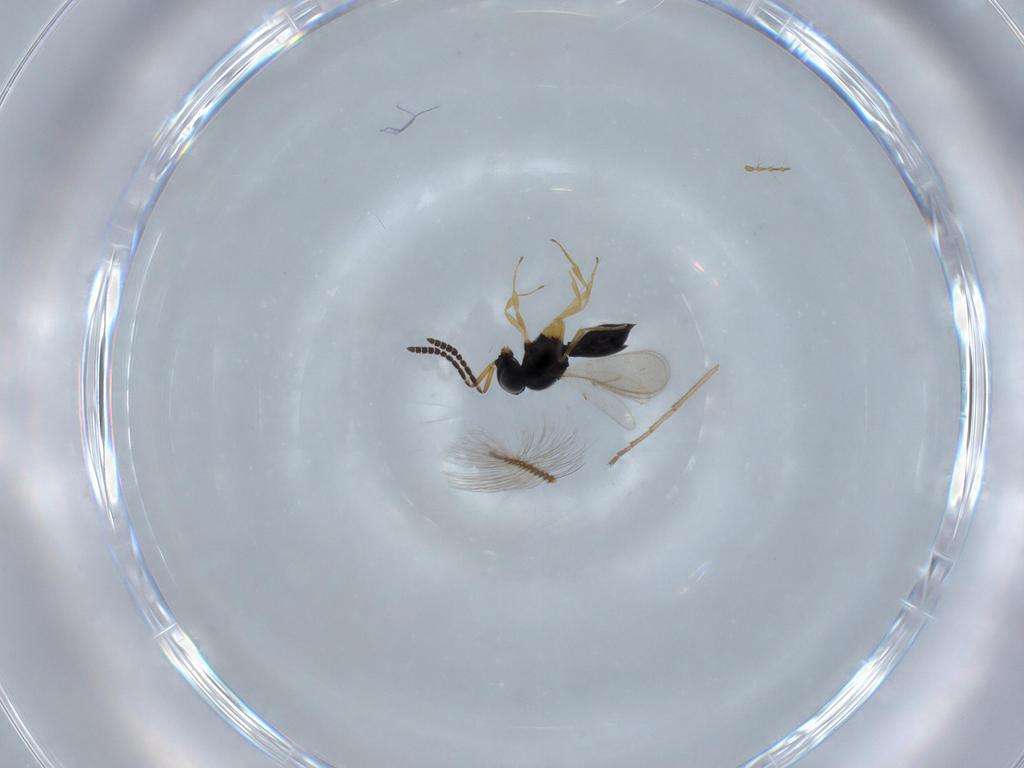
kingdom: Animalia
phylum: Arthropoda
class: Insecta
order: Hymenoptera
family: Scelionidae
